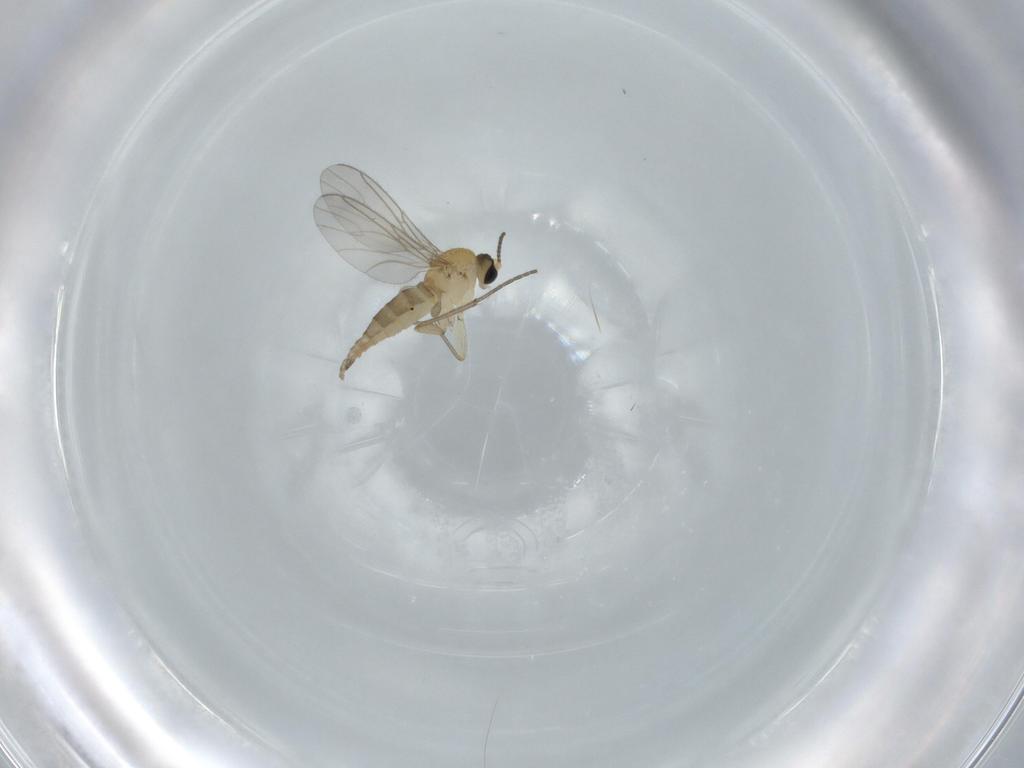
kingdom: Animalia
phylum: Arthropoda
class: Insecta
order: Diptera
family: Sciaridae
